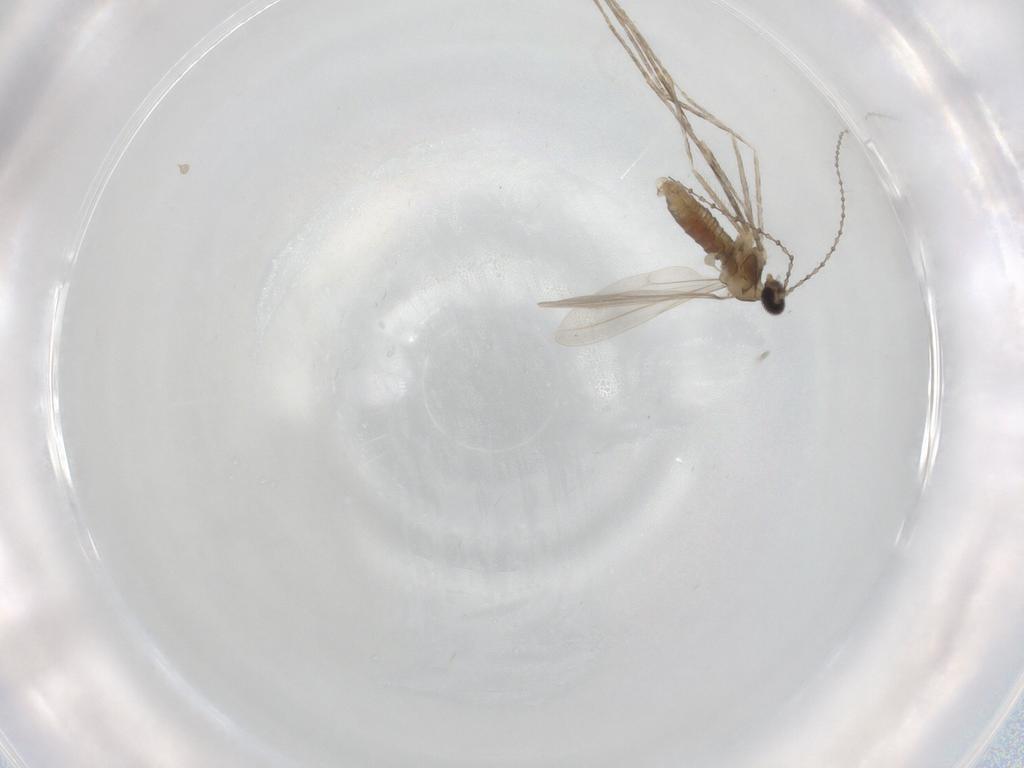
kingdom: Animalia
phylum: Arthropoda
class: Insecta
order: Diptera
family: Cecidomyiidae
